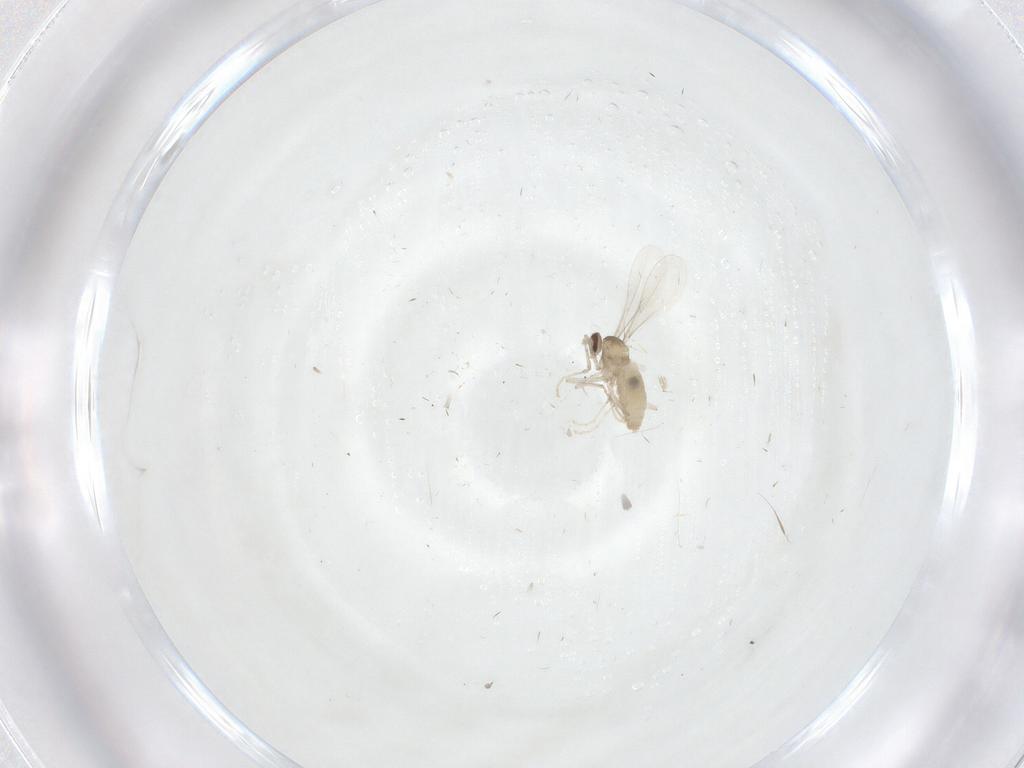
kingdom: Animalia
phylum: Arthropoda
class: Insecta
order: Diptera
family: Cecidomyiidae
